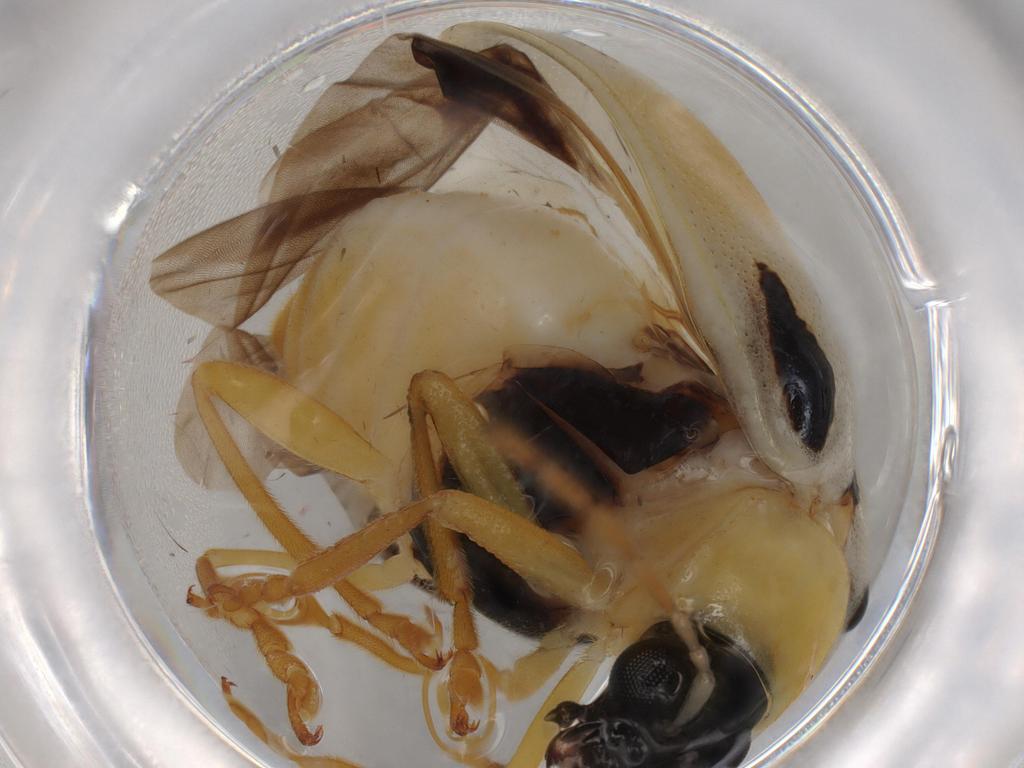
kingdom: Animalia
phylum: Arthropoda
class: Insecta
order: Coleoptera
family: Chrysomelidae
